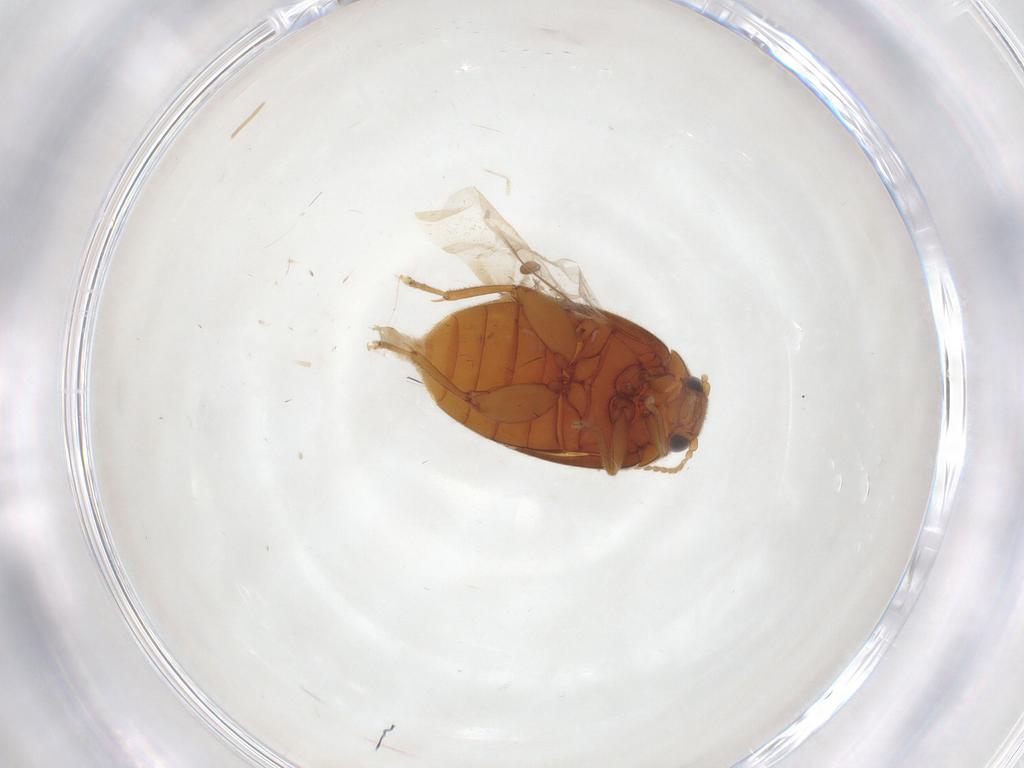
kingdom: Animalia
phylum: Arthropoda
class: Insecta
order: Coleoptera
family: Scirtidae
